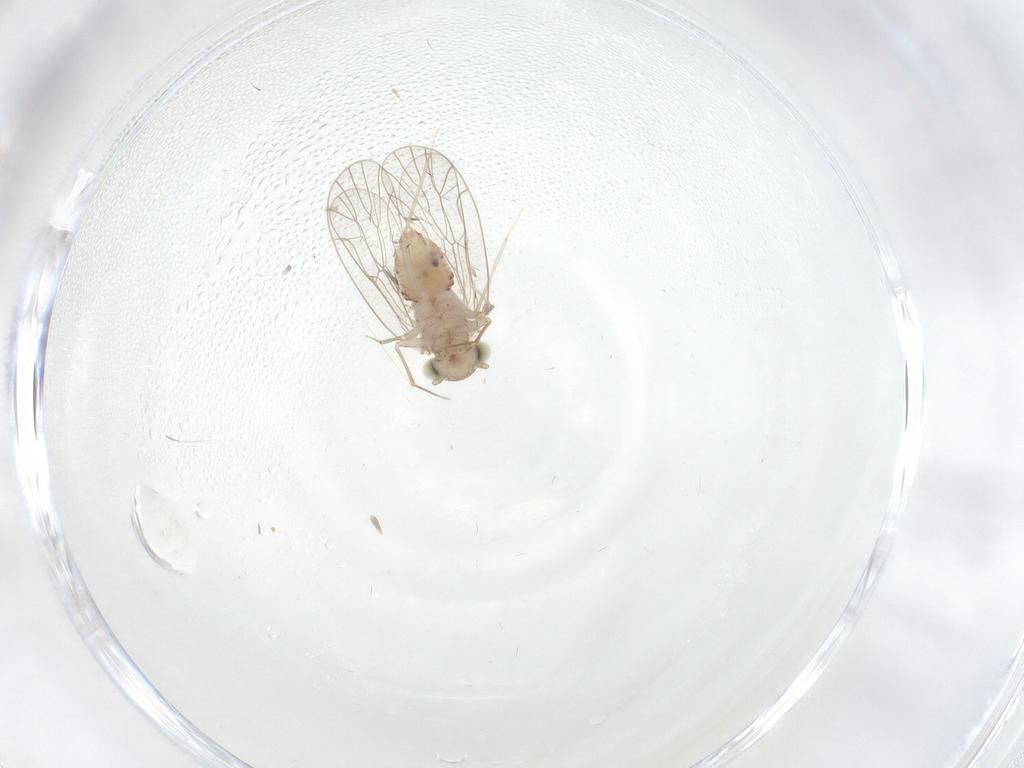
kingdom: Animalia
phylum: Arthropoda
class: Insecta
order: Psocodea
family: Amphientomidae
